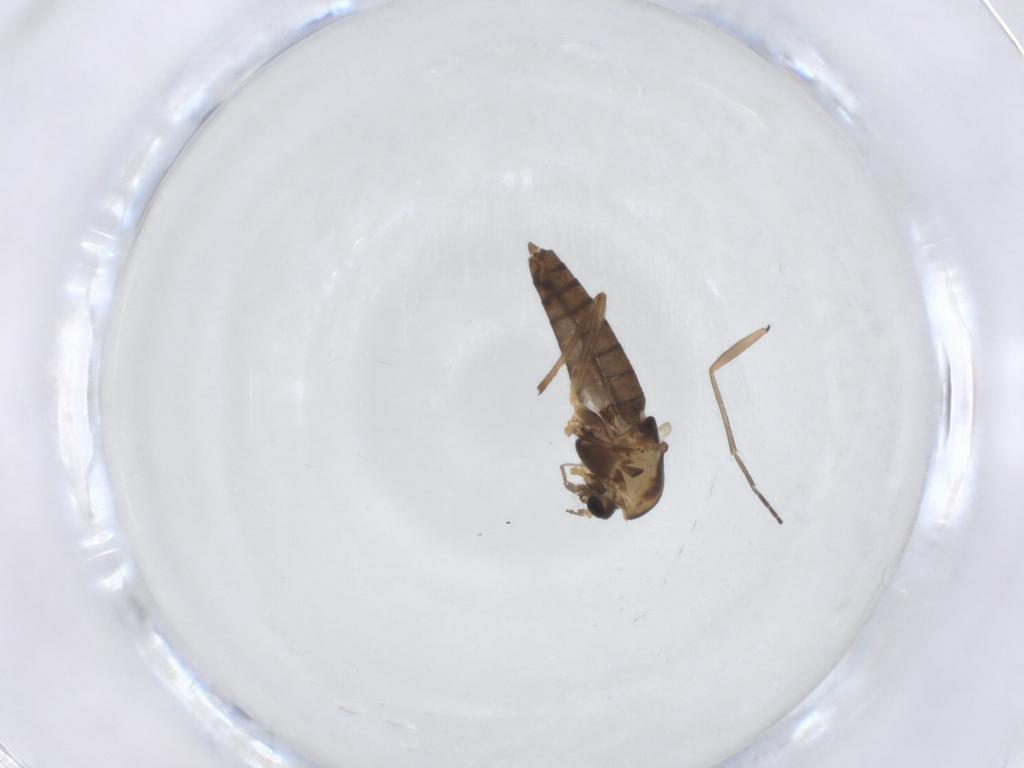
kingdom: Animalia
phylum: Arthropoda
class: Insecta
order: Diptera
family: Chironomidae
